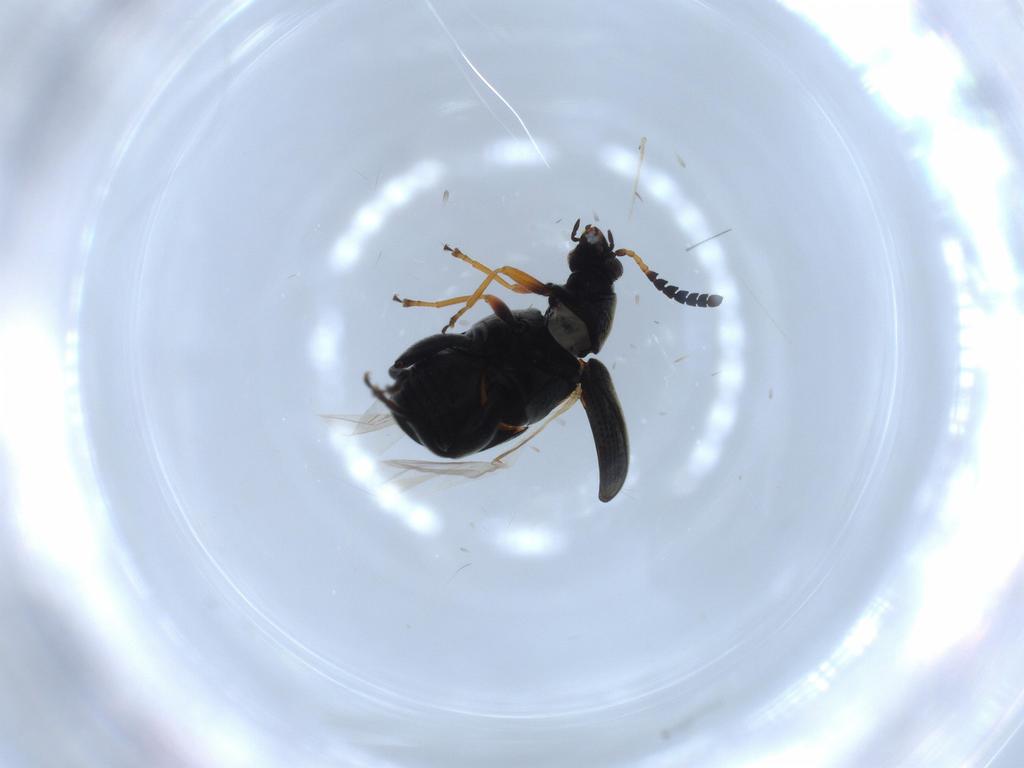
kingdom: Animalia
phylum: Arthropoda
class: Insecta
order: Coleoptera
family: Chrysomelidae
